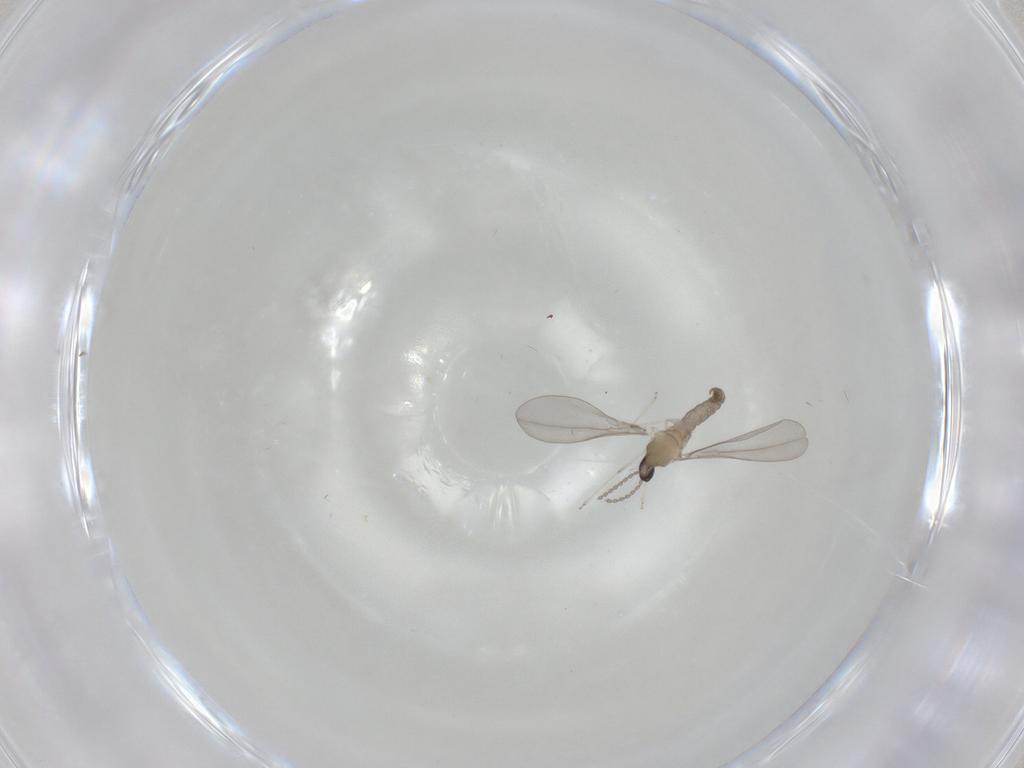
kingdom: Animalia
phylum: Arthropoda
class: Insecta
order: Diptera
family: Cecidomyiidae
